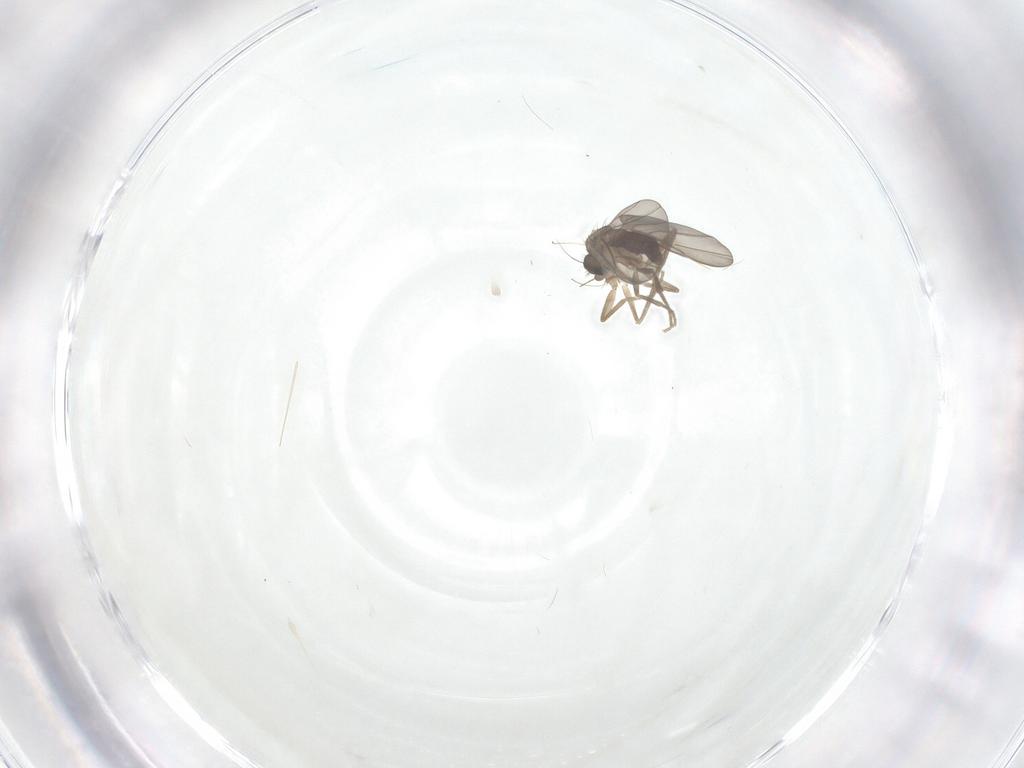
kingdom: Animalia
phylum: Arthropoda
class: Insecta
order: Diptera
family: Phoridae
